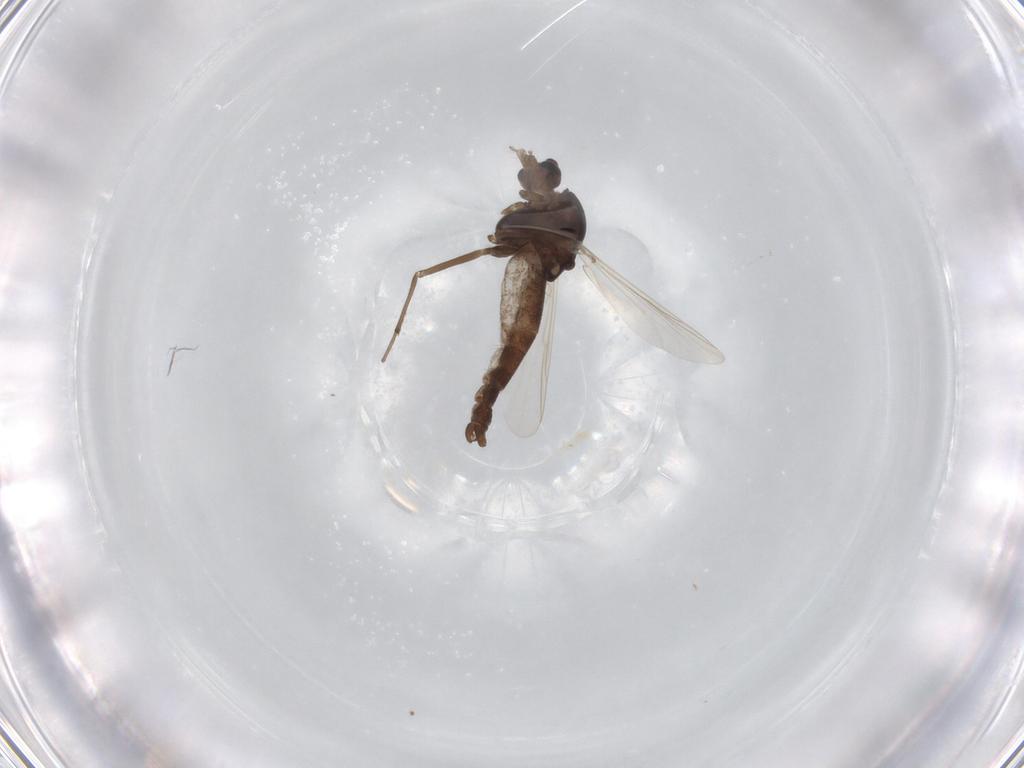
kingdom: Animalia
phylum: Arthropoda
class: Insecta
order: Diptera
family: Chironomidae
